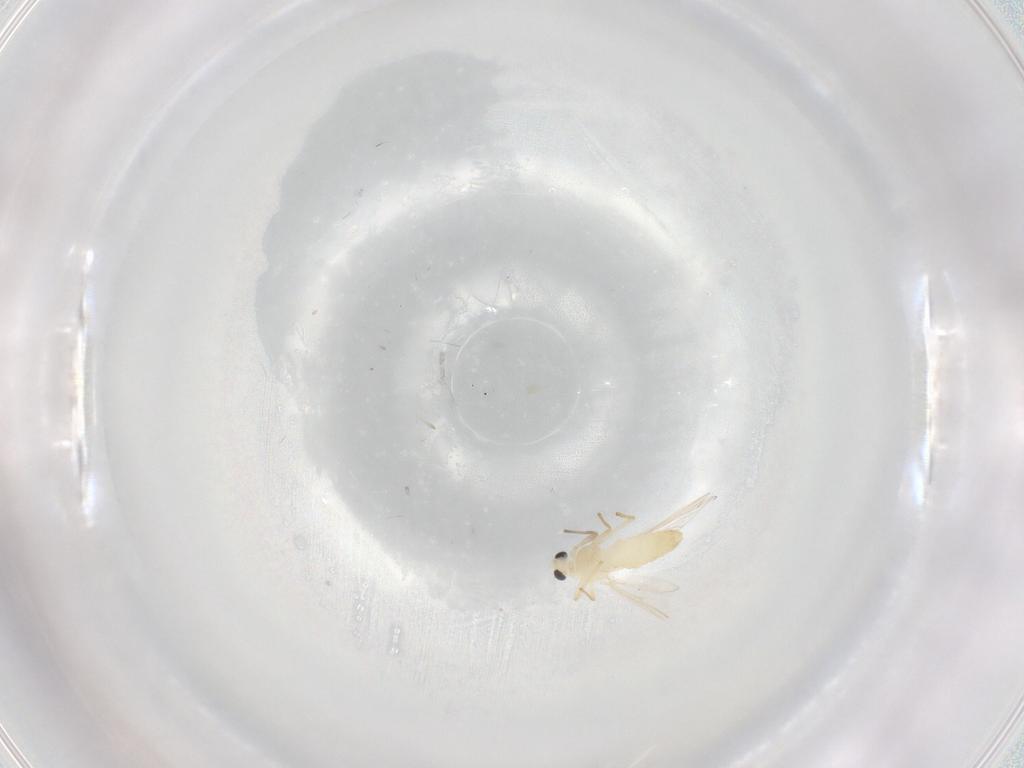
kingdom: Animalia
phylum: Arthropoda
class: Insecta
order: Diptera
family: Chironomidae
